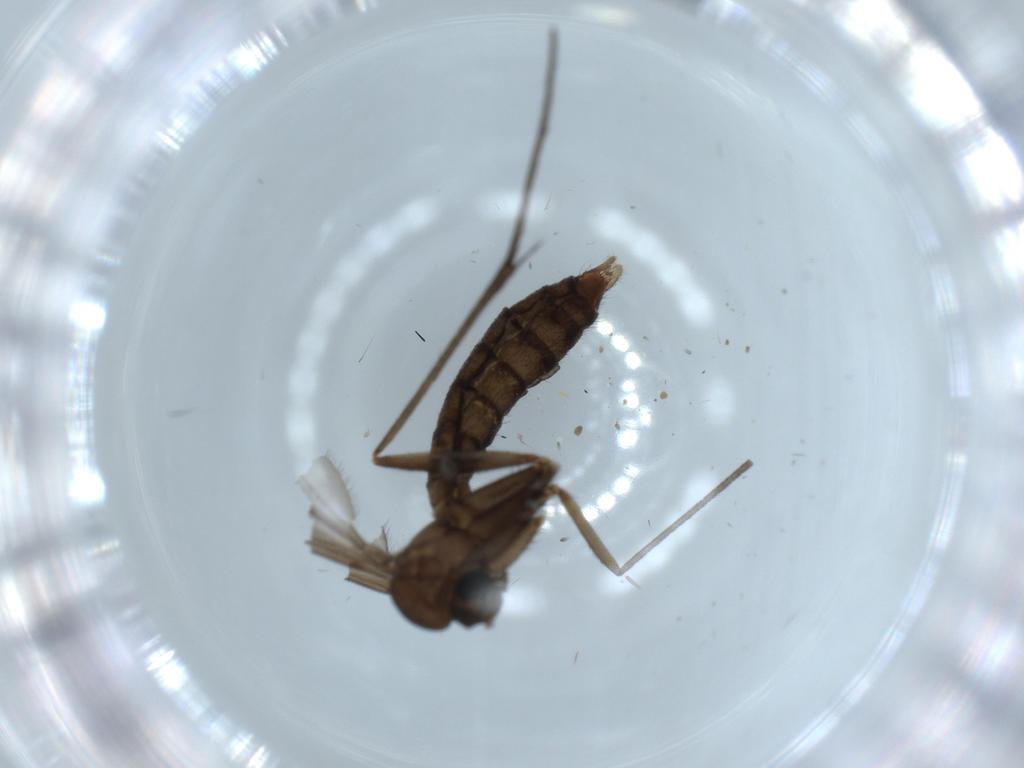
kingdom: Animalia
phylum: Arthropoda
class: Insecta
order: Diptera
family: Ditomyiidae
